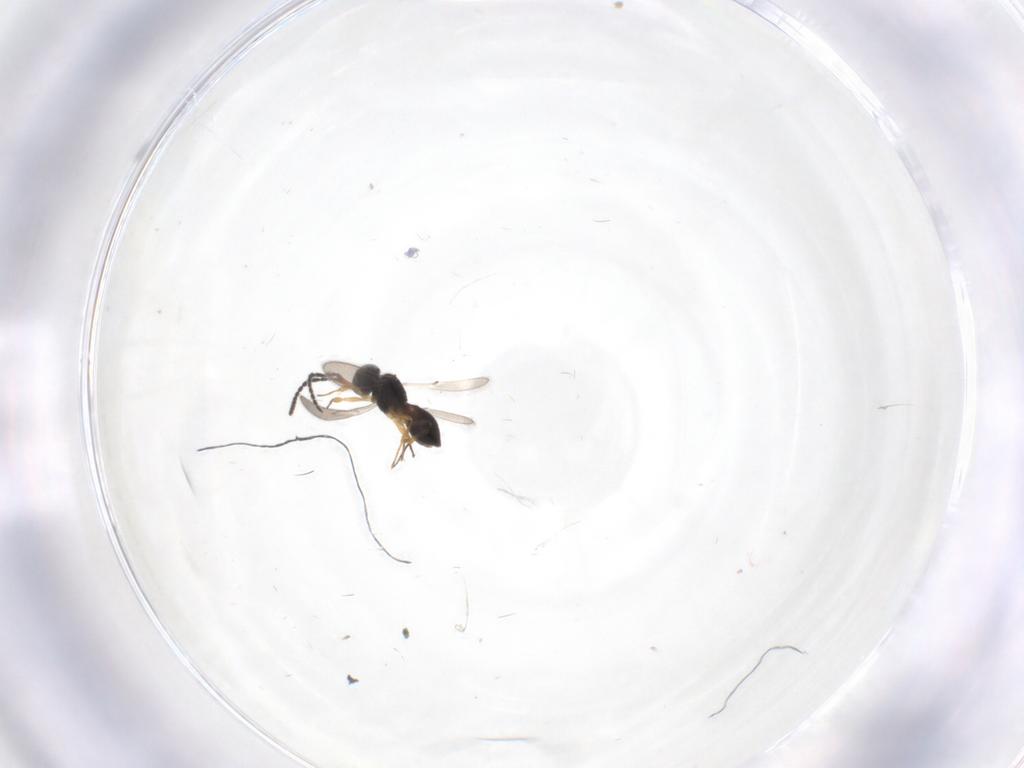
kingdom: Animalia
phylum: Arthropoda
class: Insecta
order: Hymenoptera
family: Scelionidae
